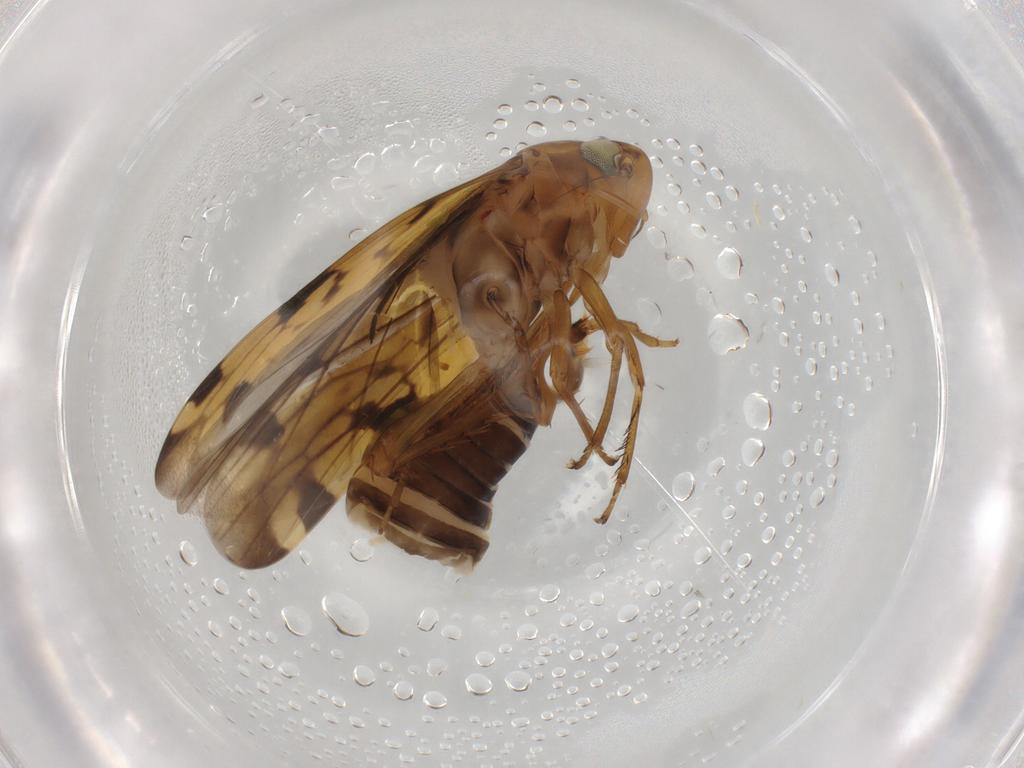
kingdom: Animalia
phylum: Arthropoda
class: Insecta
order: Hemiptera
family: Cicadellidae
